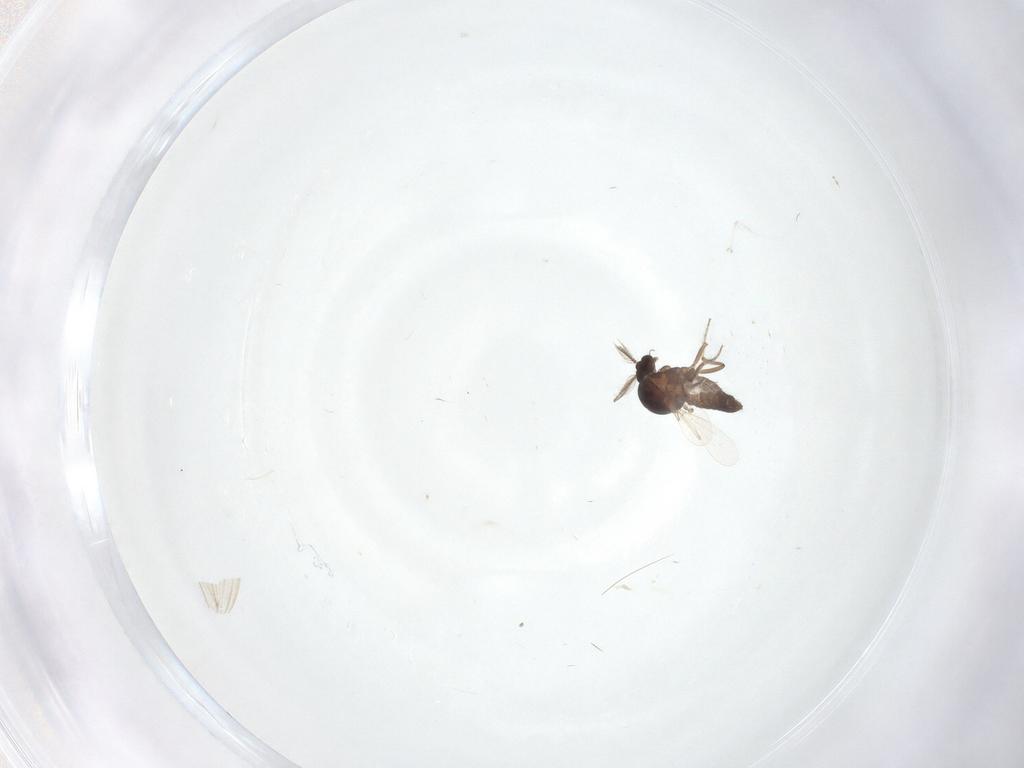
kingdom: Animalia
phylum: Arthropoda
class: Insecta
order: Diptera
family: Ceratopogonidae
